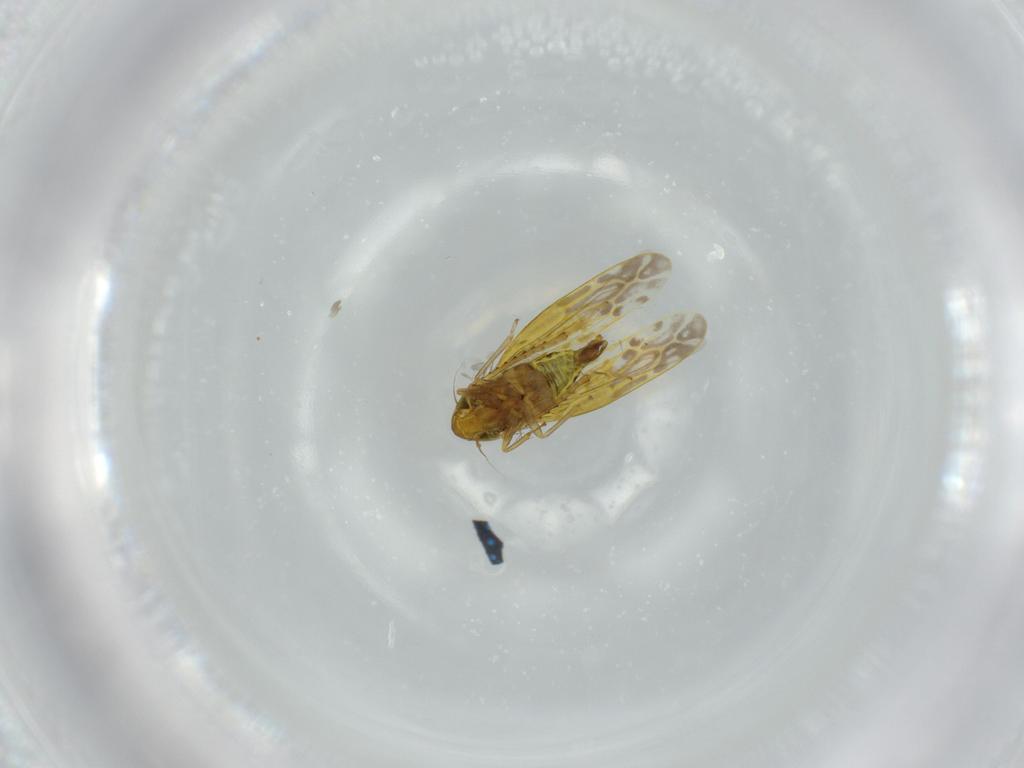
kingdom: Animalia
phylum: Arthropoda
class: Insecta
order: Hemiptera
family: Cicadellidae
